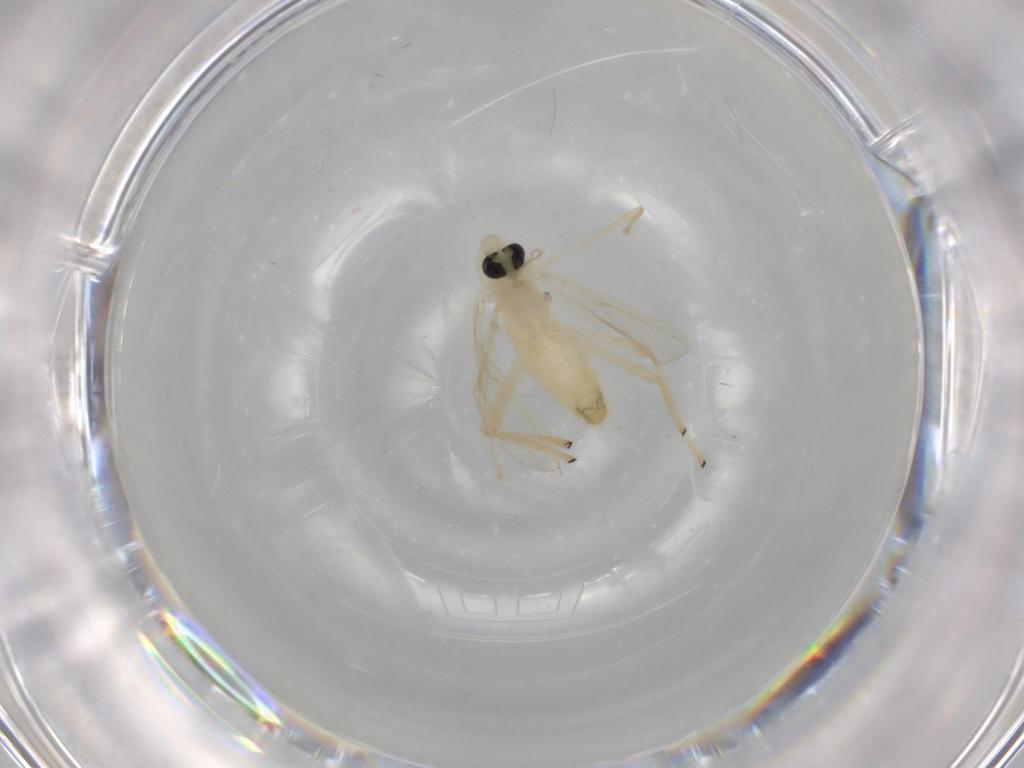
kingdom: Animalia
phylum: Arthropoda
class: Insecta
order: Diptera
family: Chironomidae
